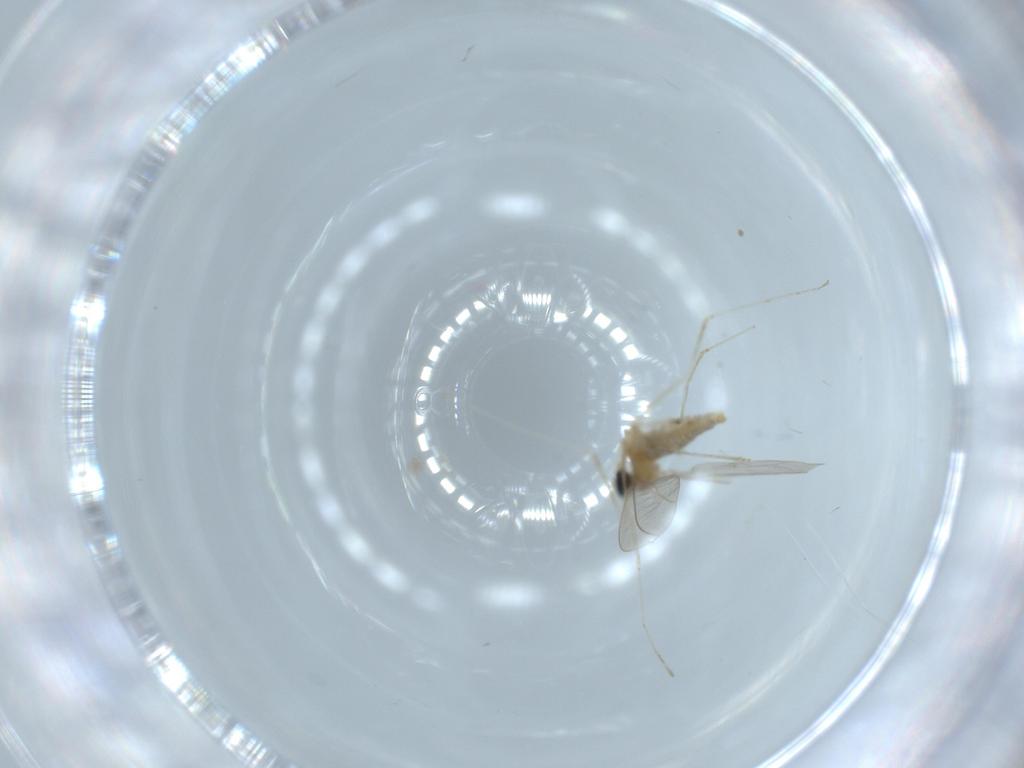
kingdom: Animalia
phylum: Arthropoda
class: Insecta
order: Diptera
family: Cecidomyiidae
